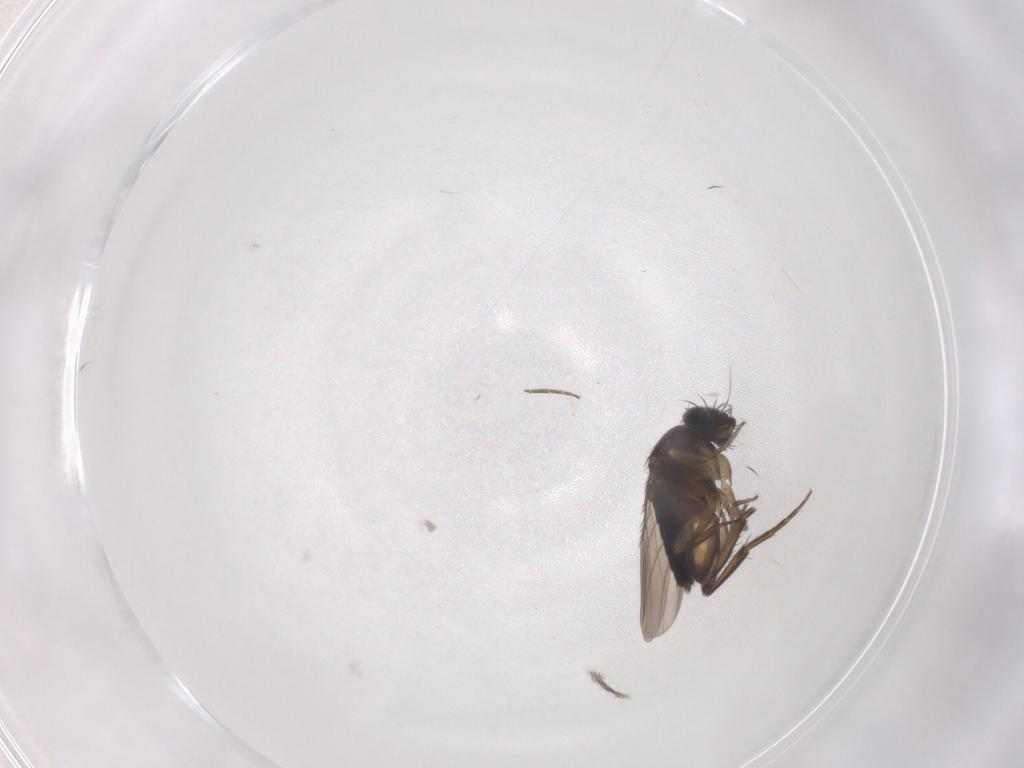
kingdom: Animalia
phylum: Arthropoda
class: Insecta
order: Diptera
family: Phoridae
